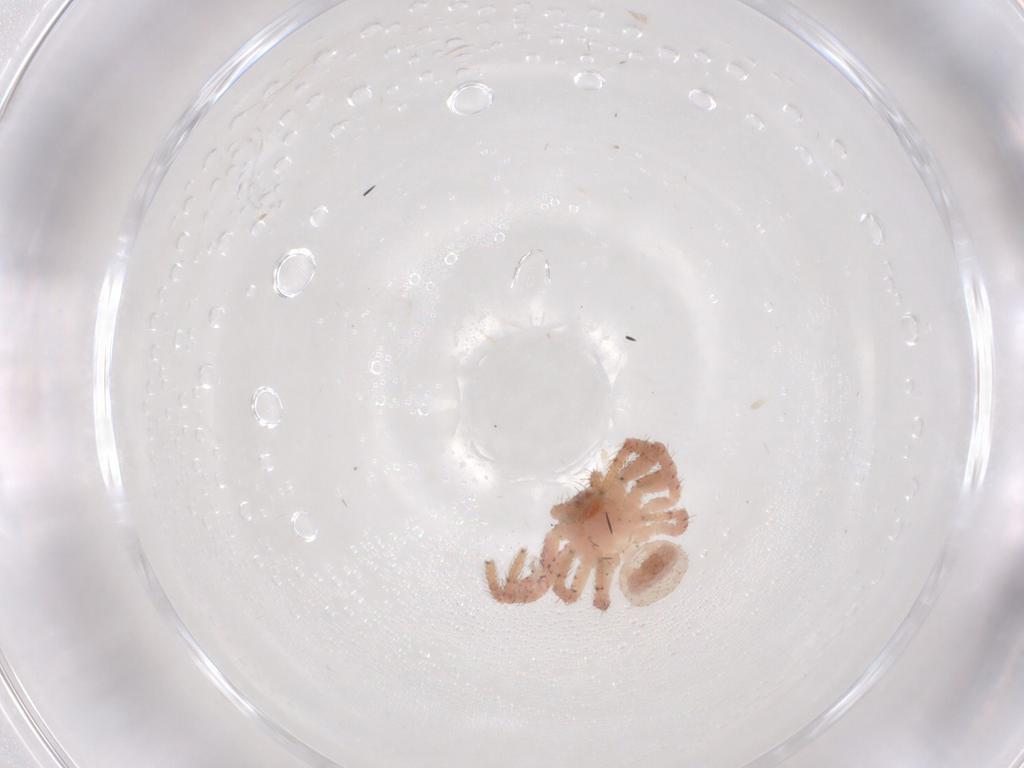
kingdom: Animalia
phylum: Arthropoda
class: Arachnida
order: Araneae
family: Thomisidae
